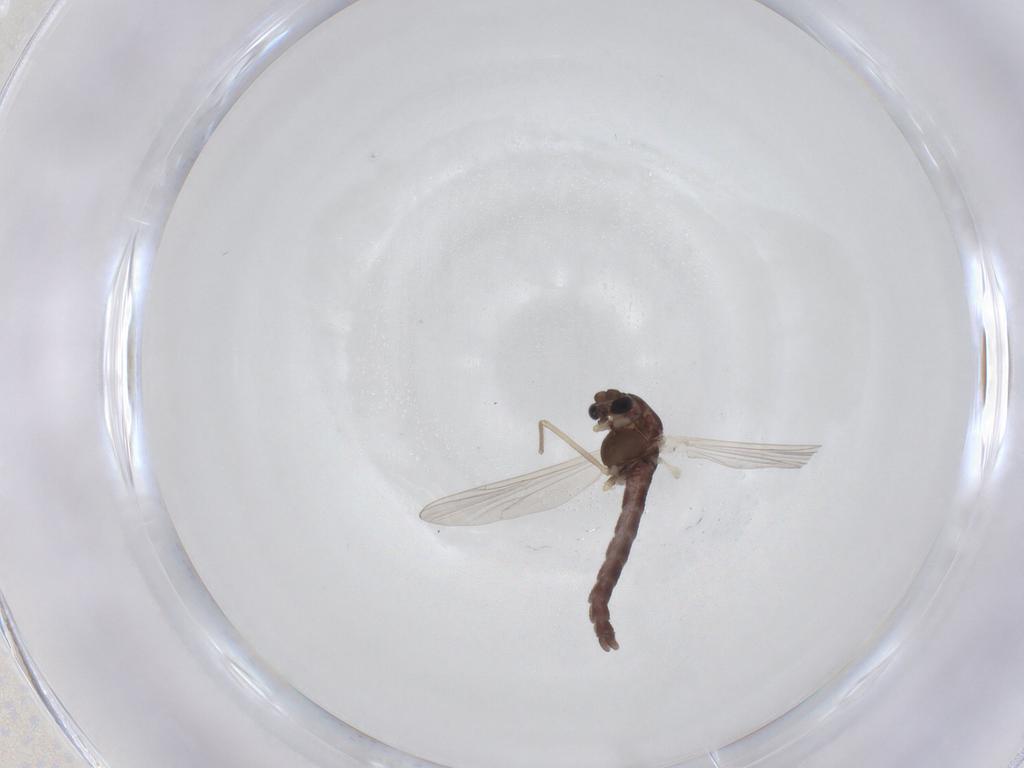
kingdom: Animalia
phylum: Arthropoda
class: Insecta
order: Diptera
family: Chironomidae
